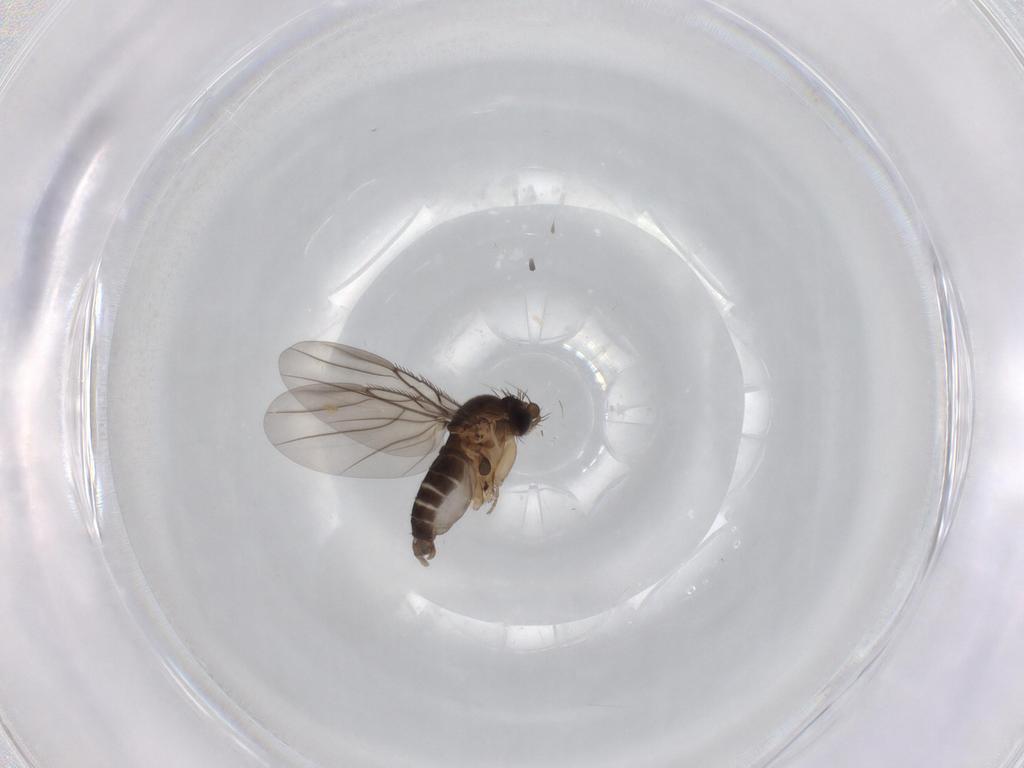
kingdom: Animalia
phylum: Arthropoda
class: Insecta
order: Diptera
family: Phoridae
